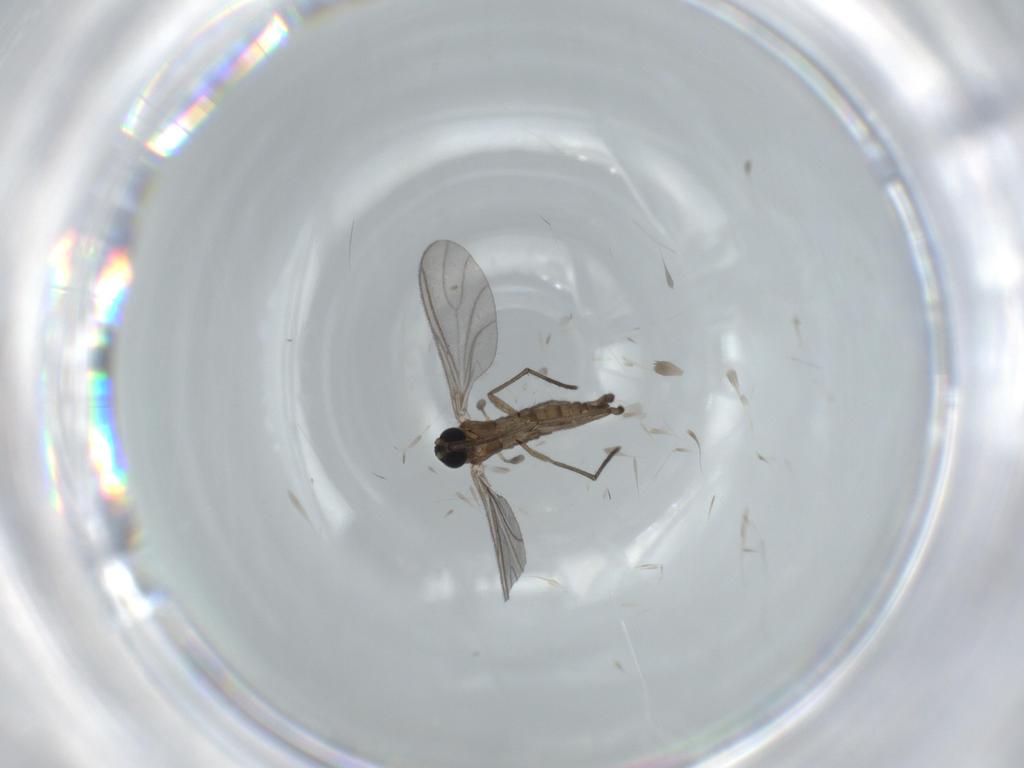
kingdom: Animalia
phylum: Arthropoda
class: Insecta
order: Diptera
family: Sciaridae
